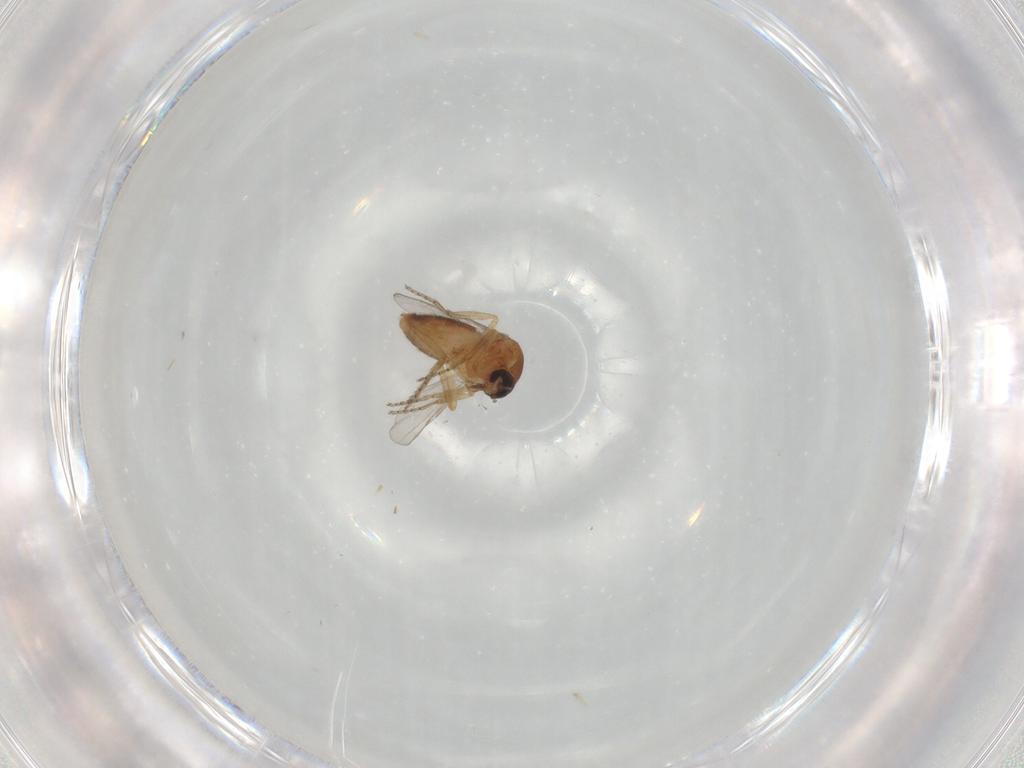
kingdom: Animalia
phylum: Arthropoda
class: Insecta
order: Diptera
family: Ceratopogonidae
